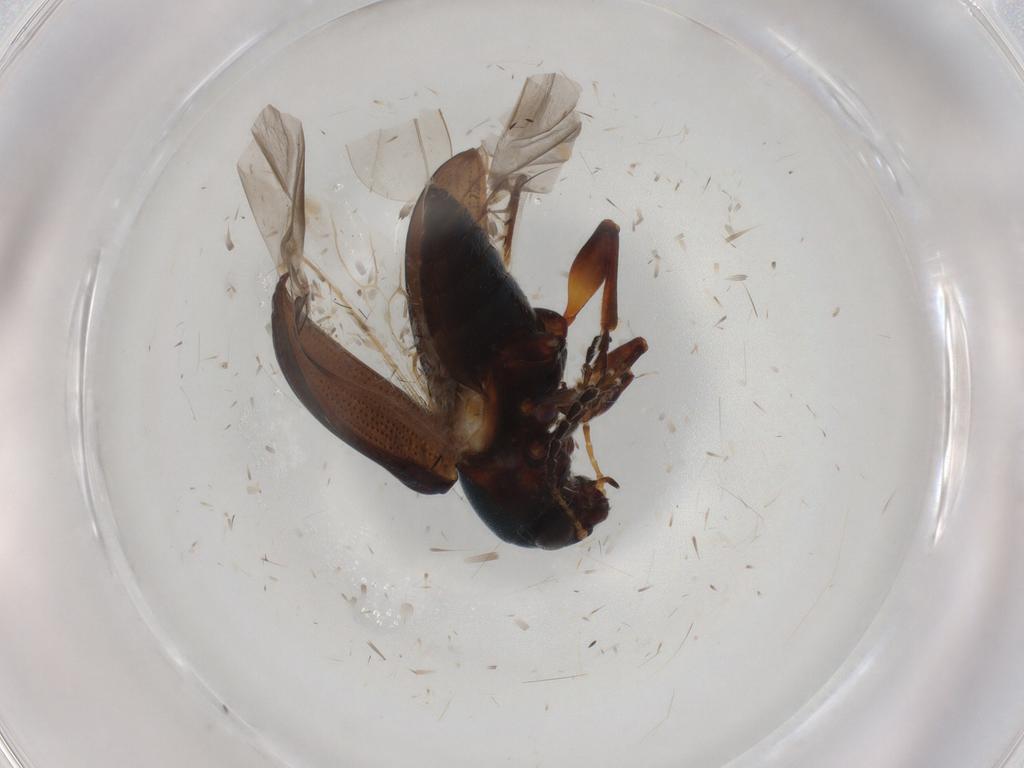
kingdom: Animalia
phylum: Arthropoda
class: Insecta
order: Coleoptera
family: Chrysomelidae
